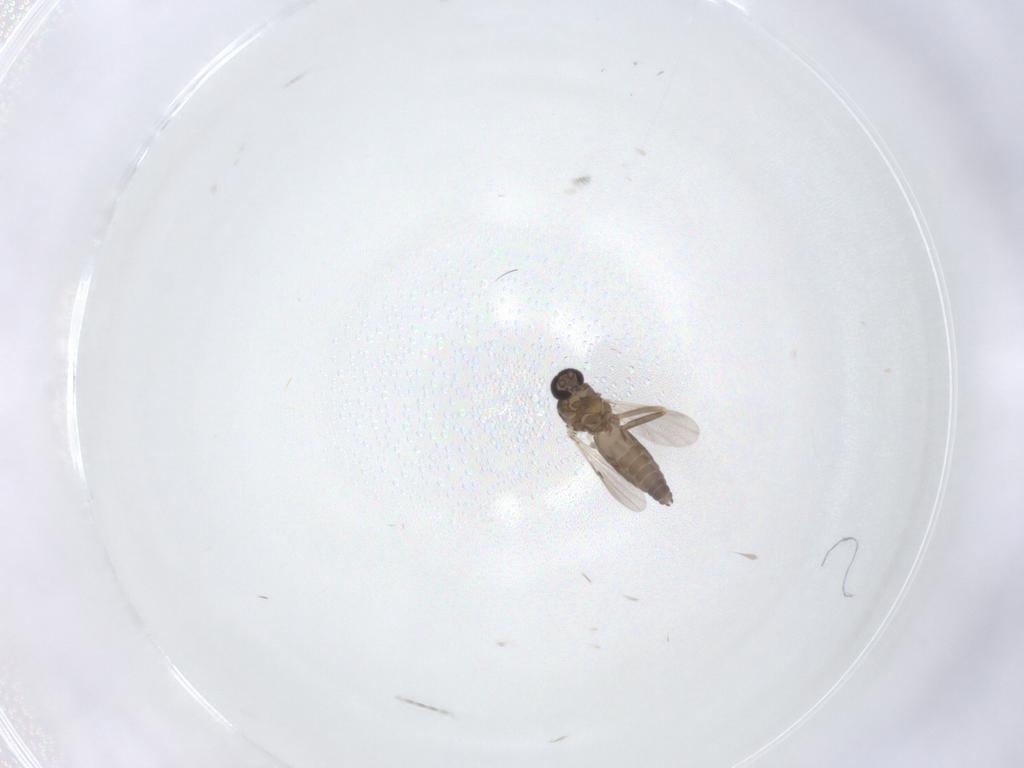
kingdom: Animalia
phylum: Arthropoda
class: Insecta
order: Diptera
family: Ceratopogonidae
